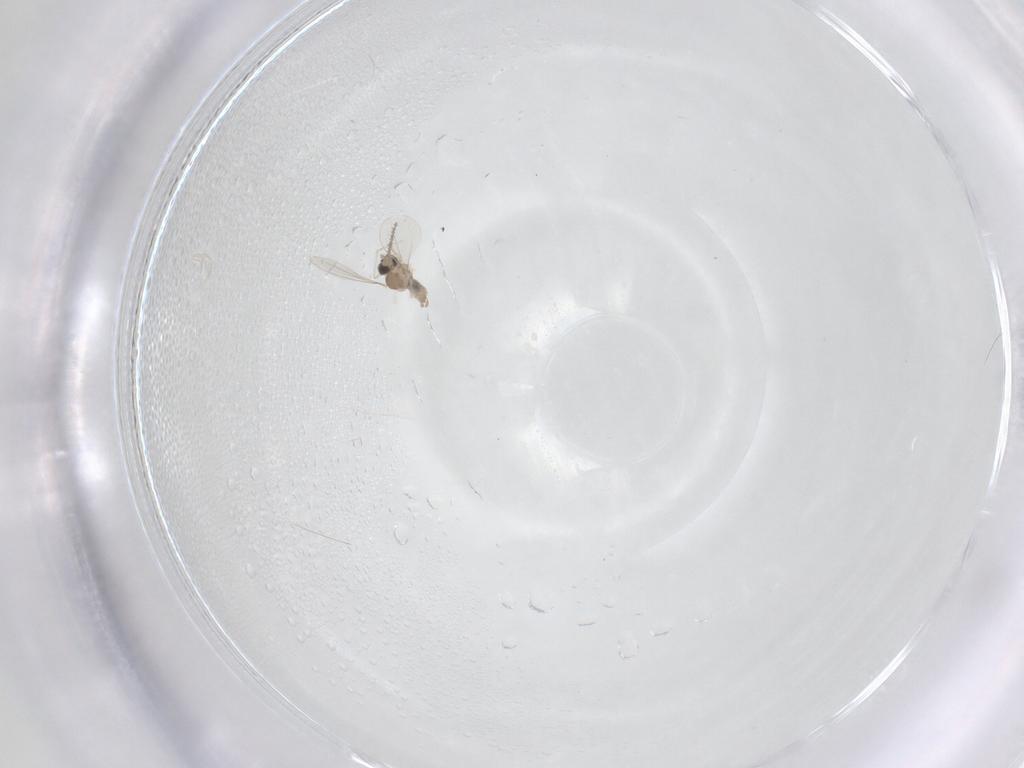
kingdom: Animalia
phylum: Arthropoda
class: Insecta
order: Diptera
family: Cecidomyiidae
